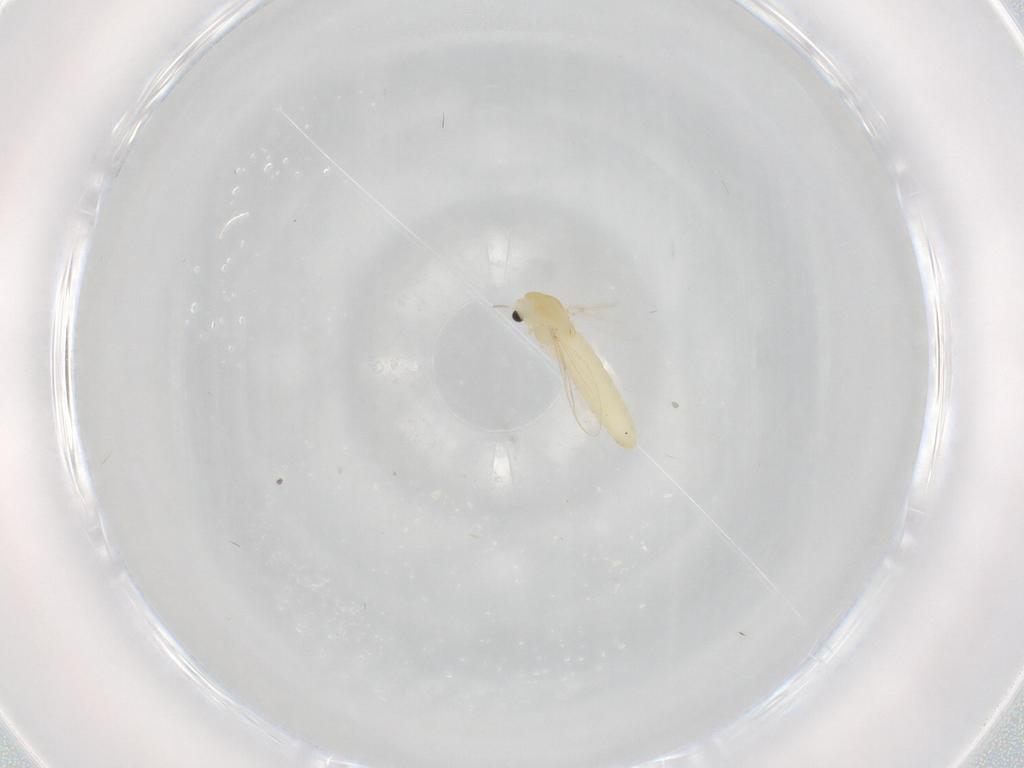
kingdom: Animalia
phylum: Arthropoda
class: Insecta
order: Diptera
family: Chironomidae
